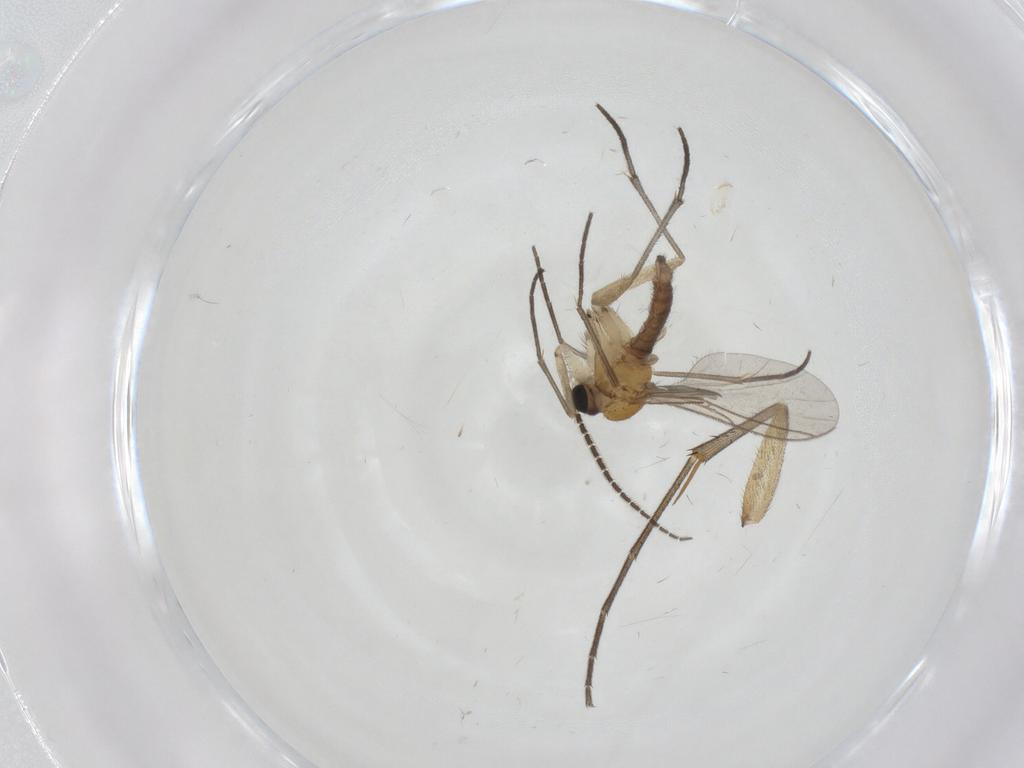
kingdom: Animalia
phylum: Arthropoda
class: Insecta
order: Diptera
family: Sciaridae
